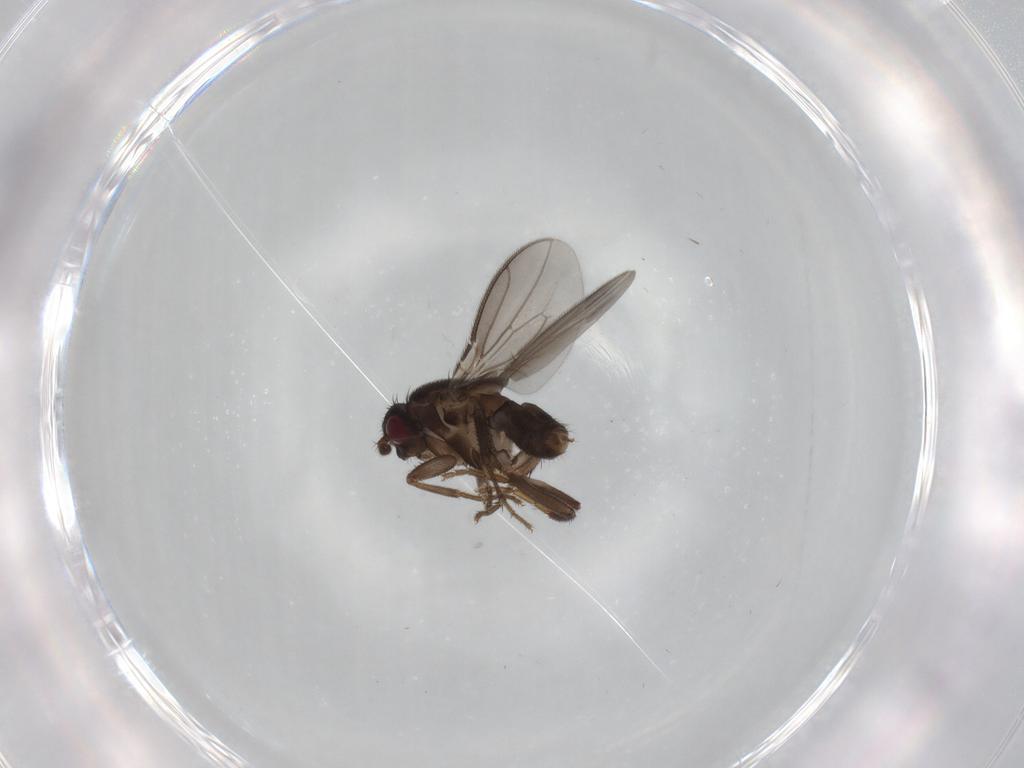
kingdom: Animalia
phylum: Arthropoda
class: Insecta
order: Diptera
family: Sphaeroceridae
